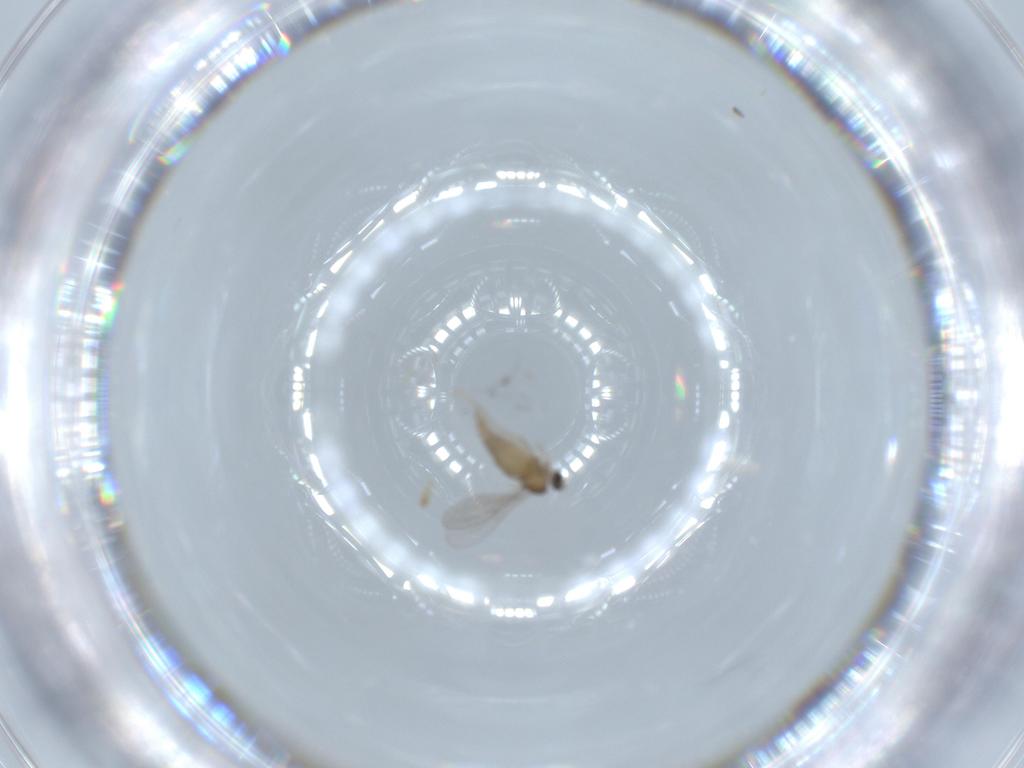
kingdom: Animalia
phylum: Arthropoda
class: Insecta
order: Diptera
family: Cecidomyiidae
